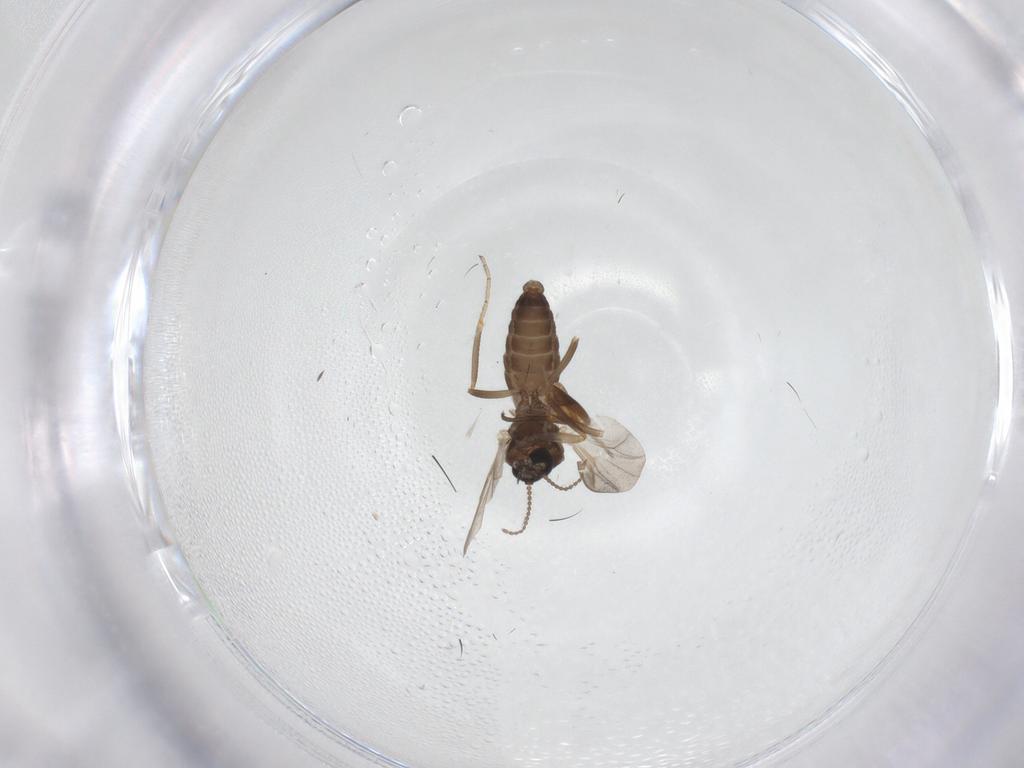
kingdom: Animalia
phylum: Arthropoda
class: Insecta
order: Diptera
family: Ceratopogonidae
